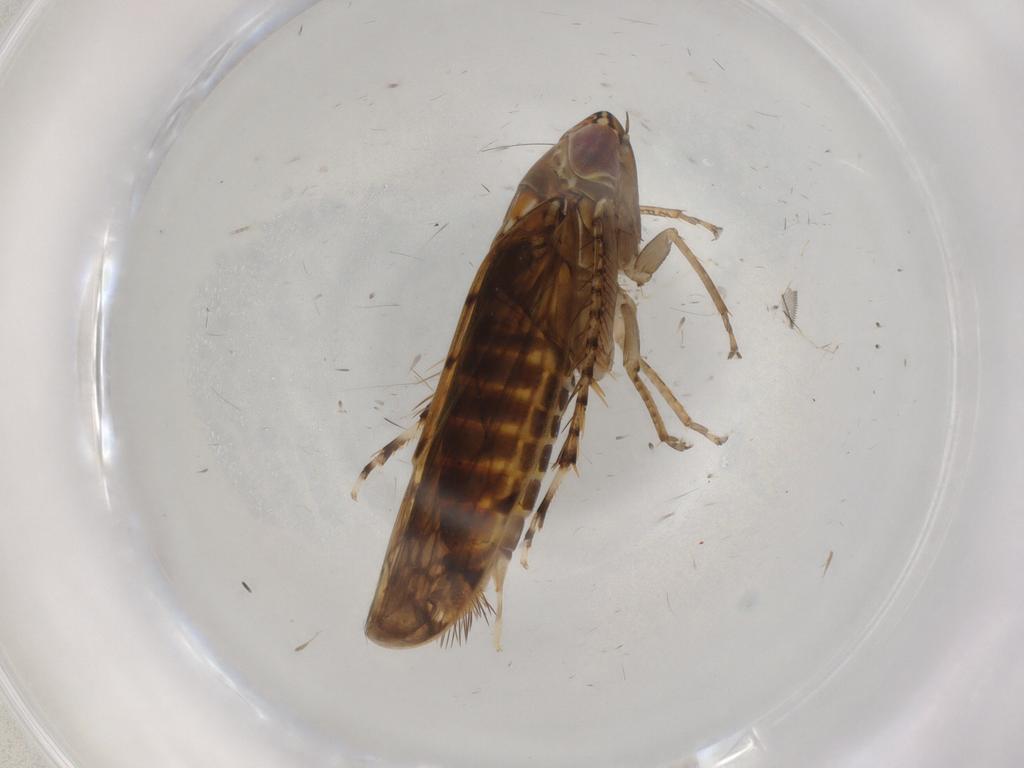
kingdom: Animalia
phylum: Arthropoda
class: Insecta
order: Hemiptera
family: Cicadellidae
